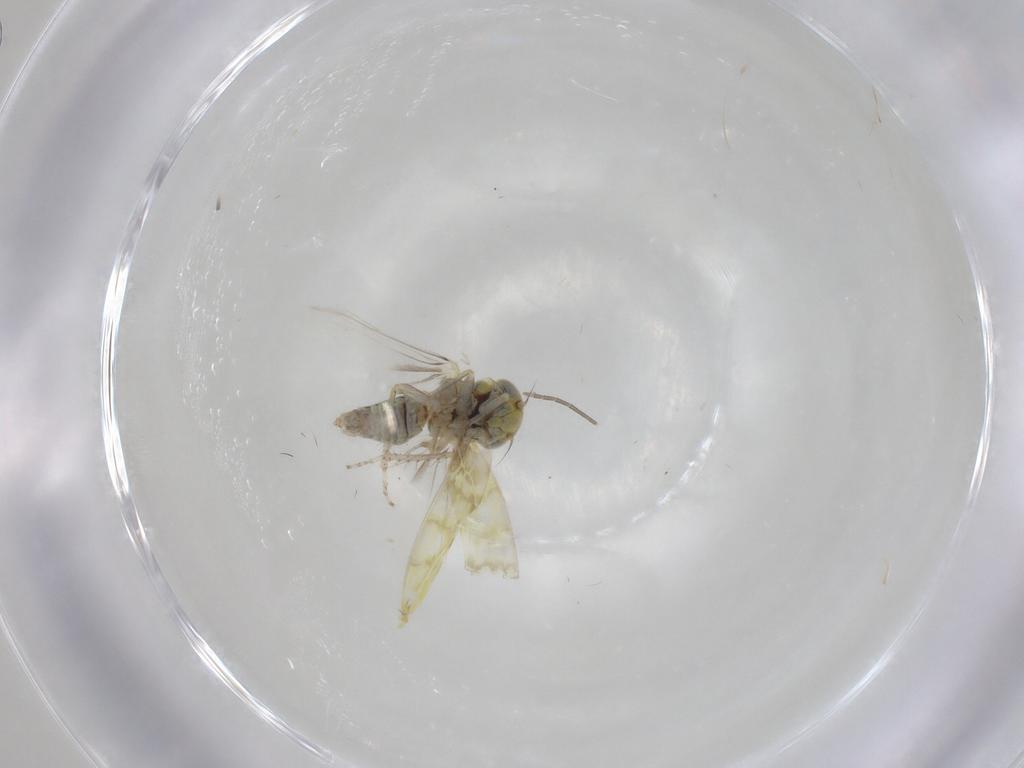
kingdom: Animalia
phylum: Arthropoda
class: Insecta
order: Hemiptera
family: Cicadellidae
